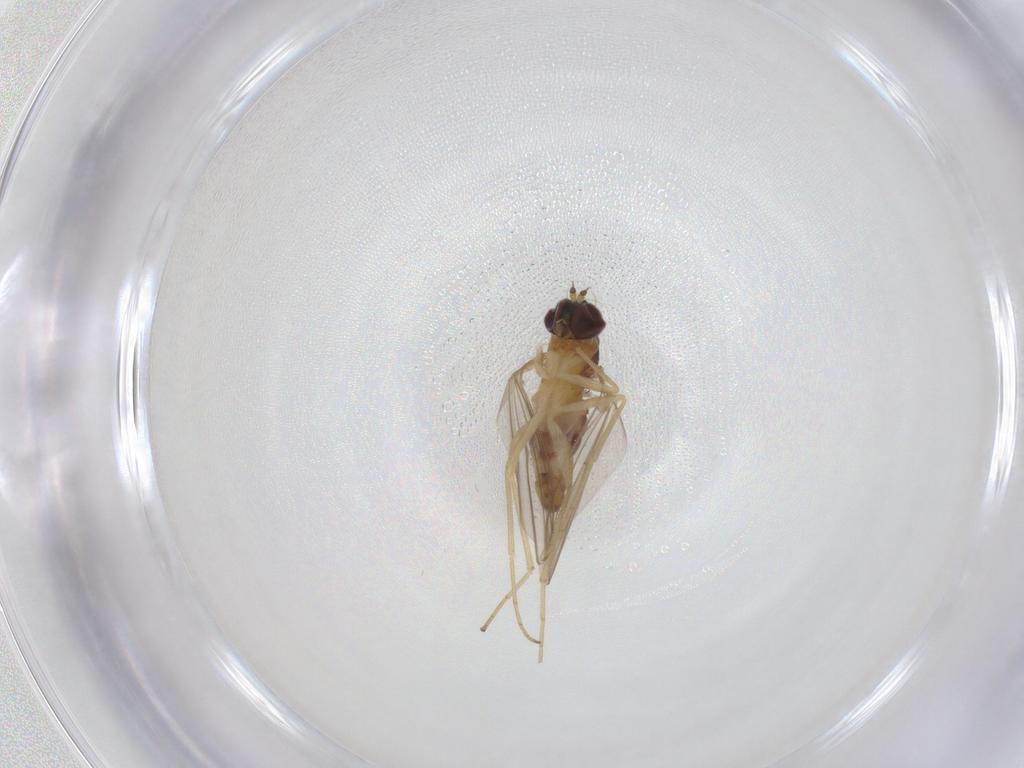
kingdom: Animalia
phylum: Arthropoda
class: Insecta
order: Diptera
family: Dolichopodidae
